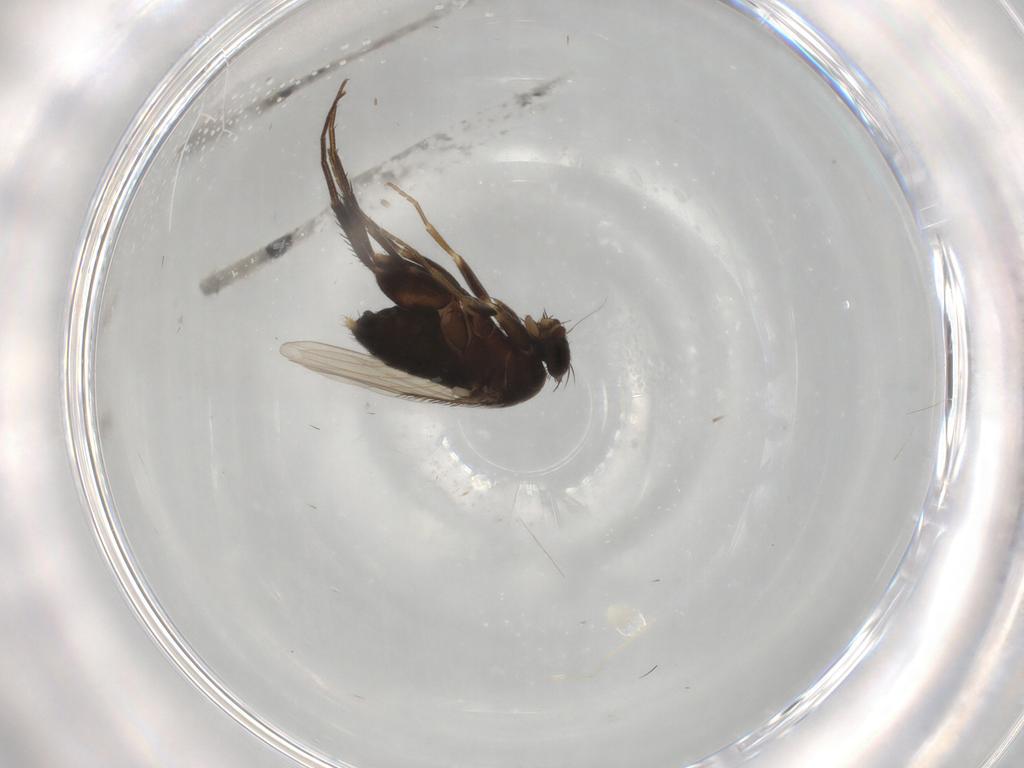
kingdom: Animalia
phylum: Arthropoda
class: Insecta
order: Diptera
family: Phoridae
